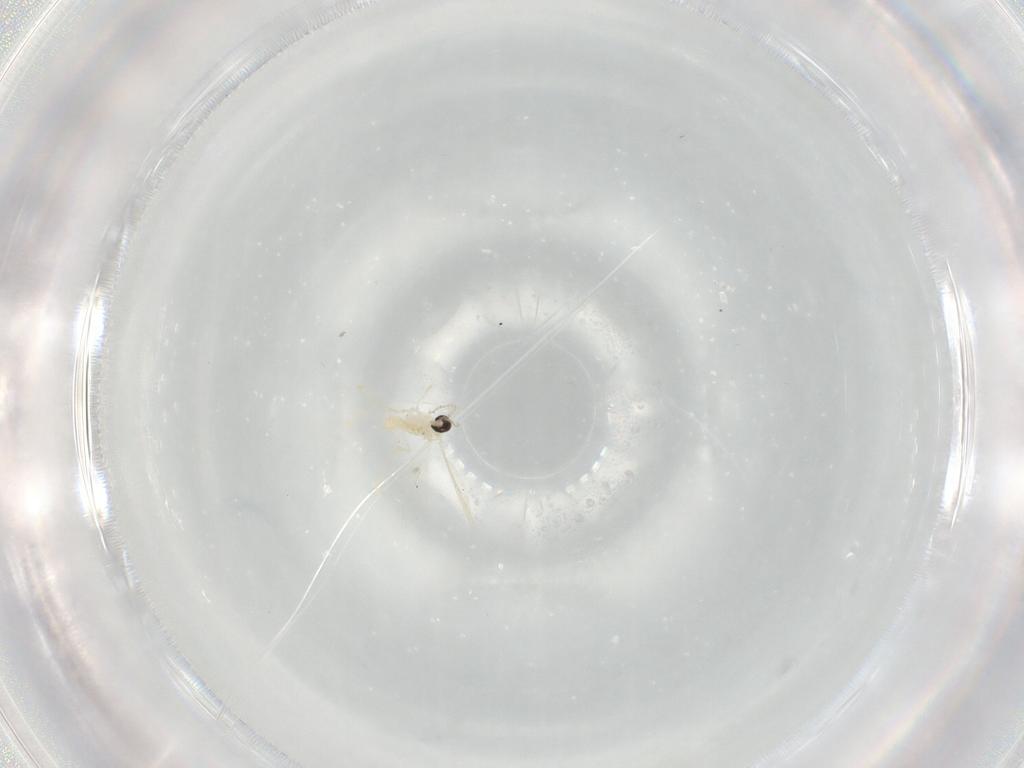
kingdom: Animalia
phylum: Arthropoda
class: Insecta
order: Diptera
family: Cecidomyiidae
